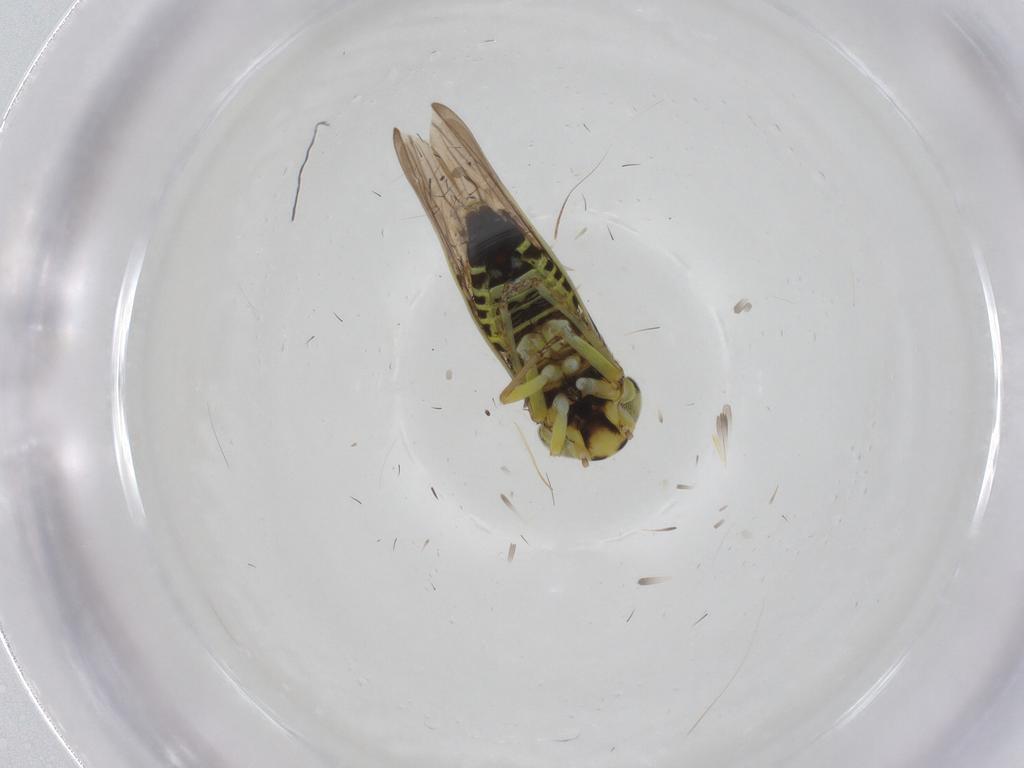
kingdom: Animalia
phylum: Arthropoda
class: Insecta
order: Hemiptera
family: Cicadellidae
